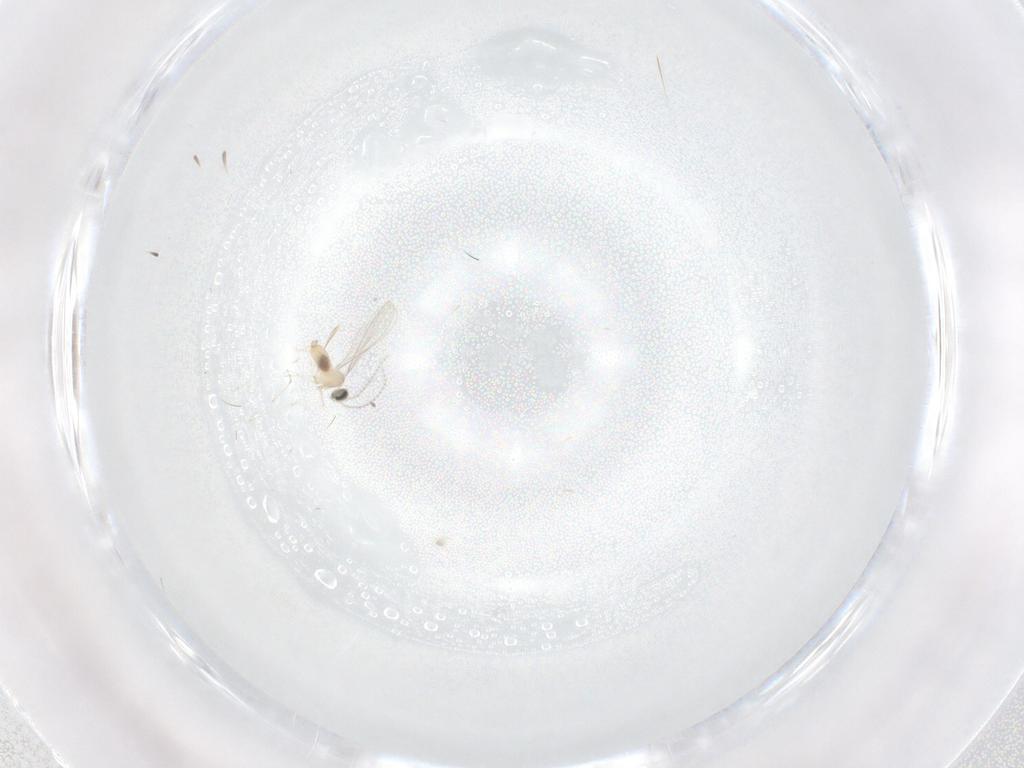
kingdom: Animalia
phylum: Arthropoda
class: Insecta
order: Diptera
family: Cecidomyiidae
